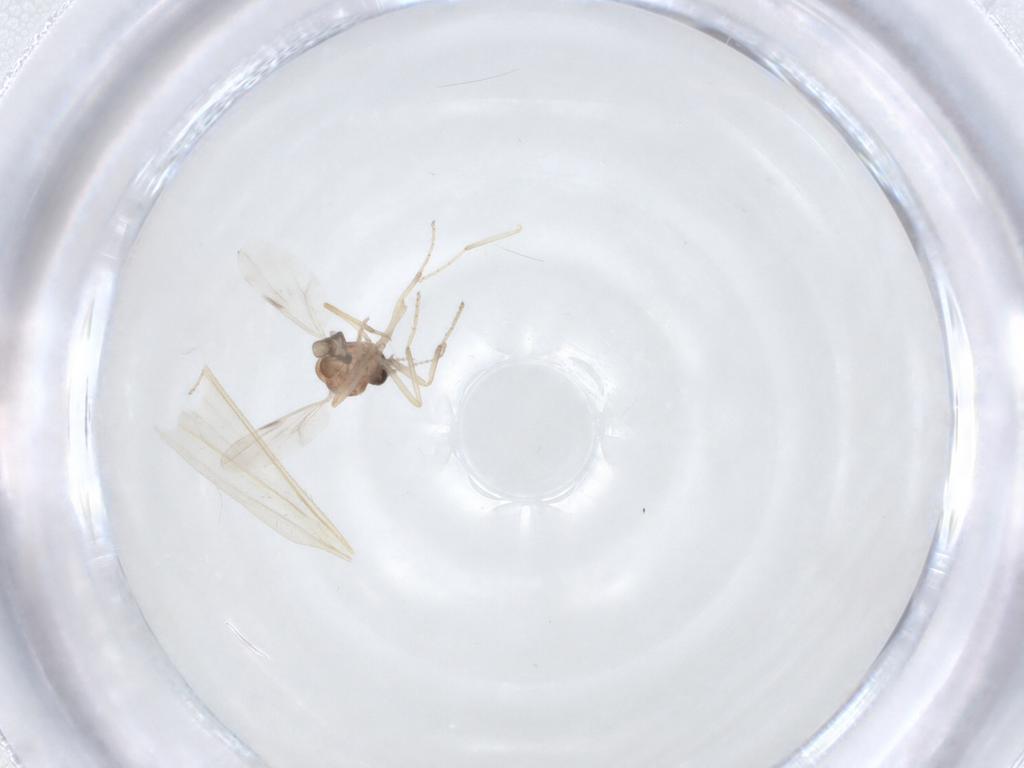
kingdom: Animalia
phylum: Arthropoda
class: Insecta
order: Diptera
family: Ceratopogonidae
